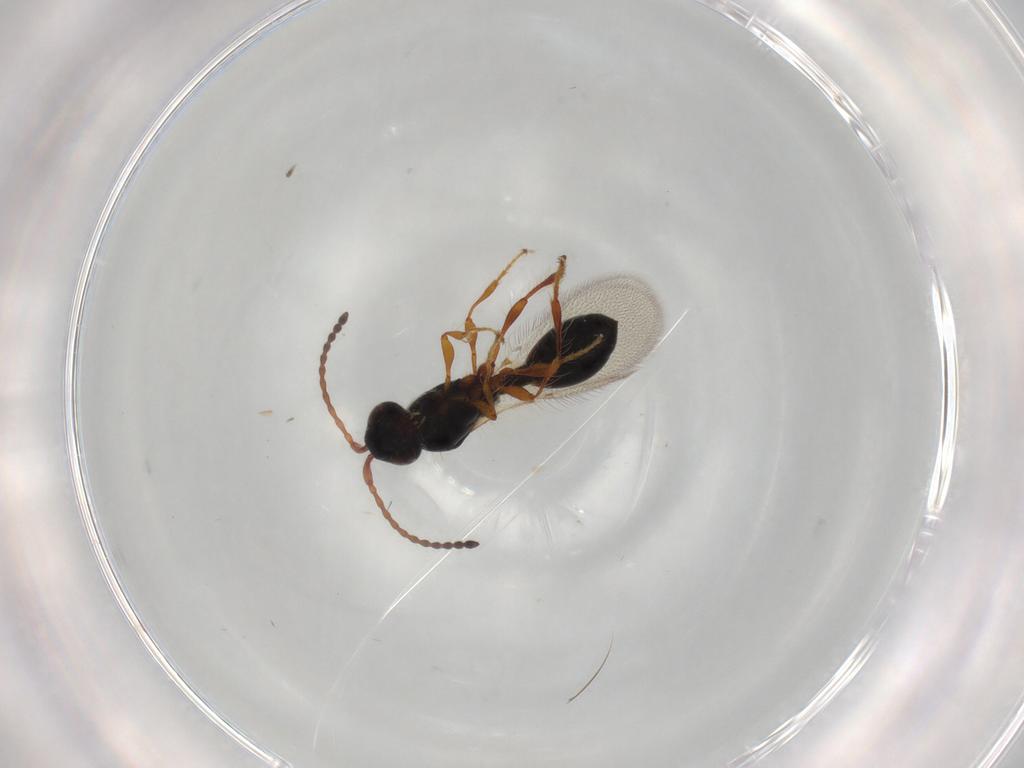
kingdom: Animalia
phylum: Arthropoda
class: Insecta
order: Hymenoptera
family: Diapriidae
